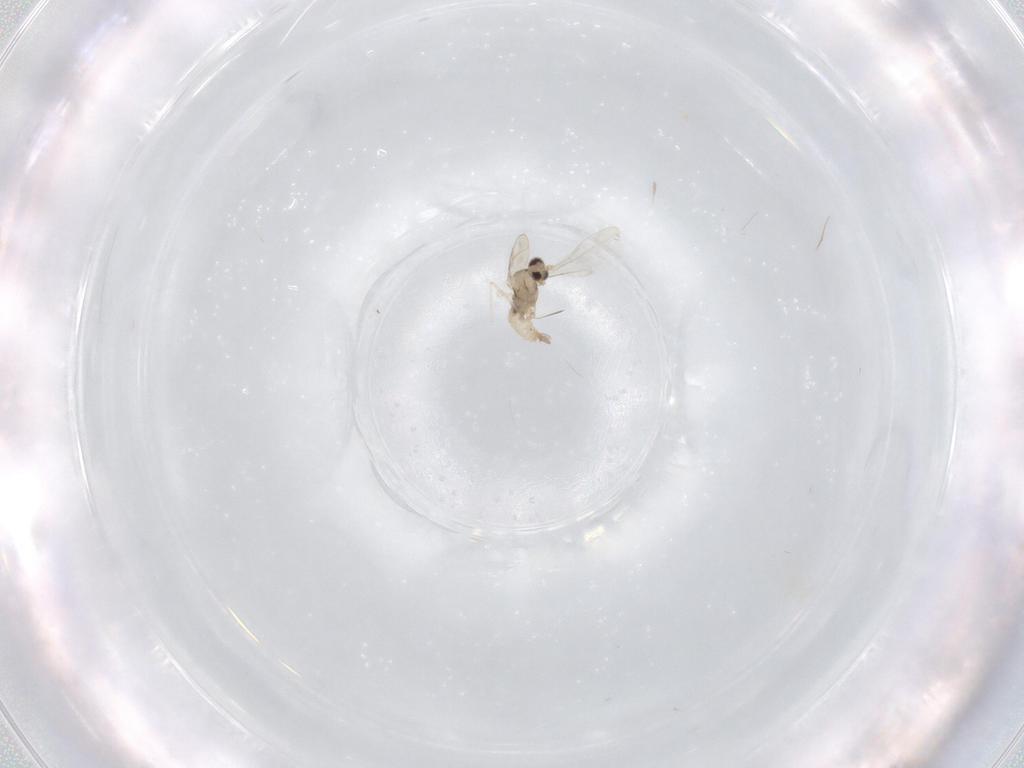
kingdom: Animalia
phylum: Arthropoda
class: Insecta
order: Diptera
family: Cecidomyiidae
